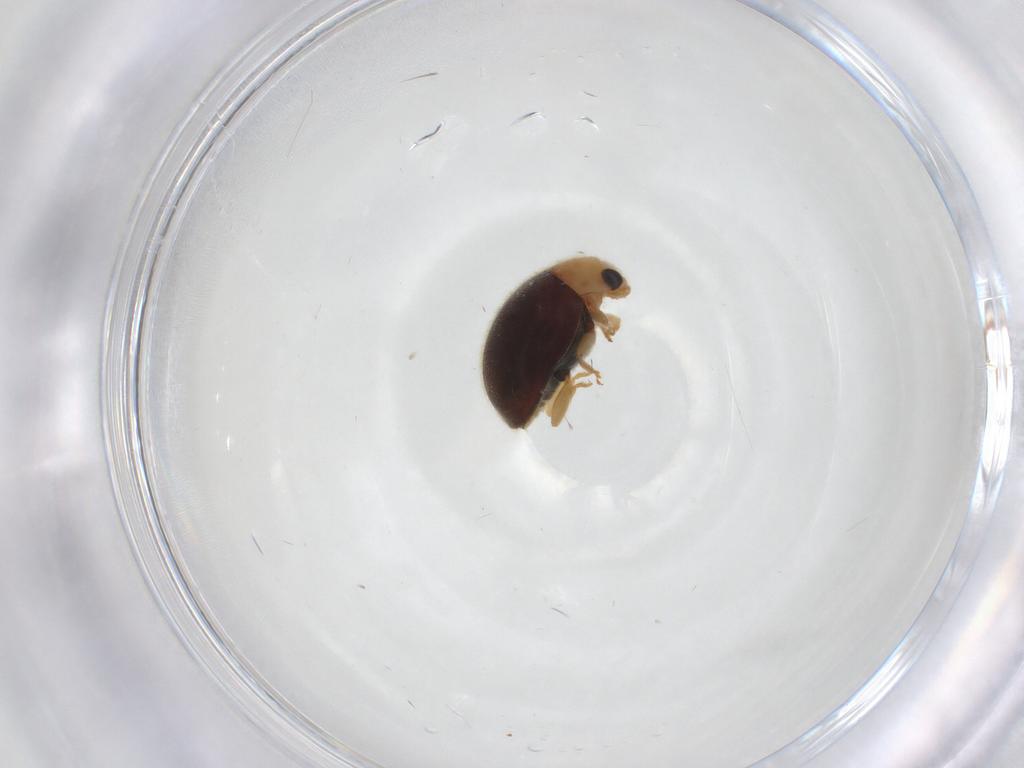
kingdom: Animalia
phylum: Arthropoda
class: Insecta
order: Coleoptera
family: Coccinellidae
